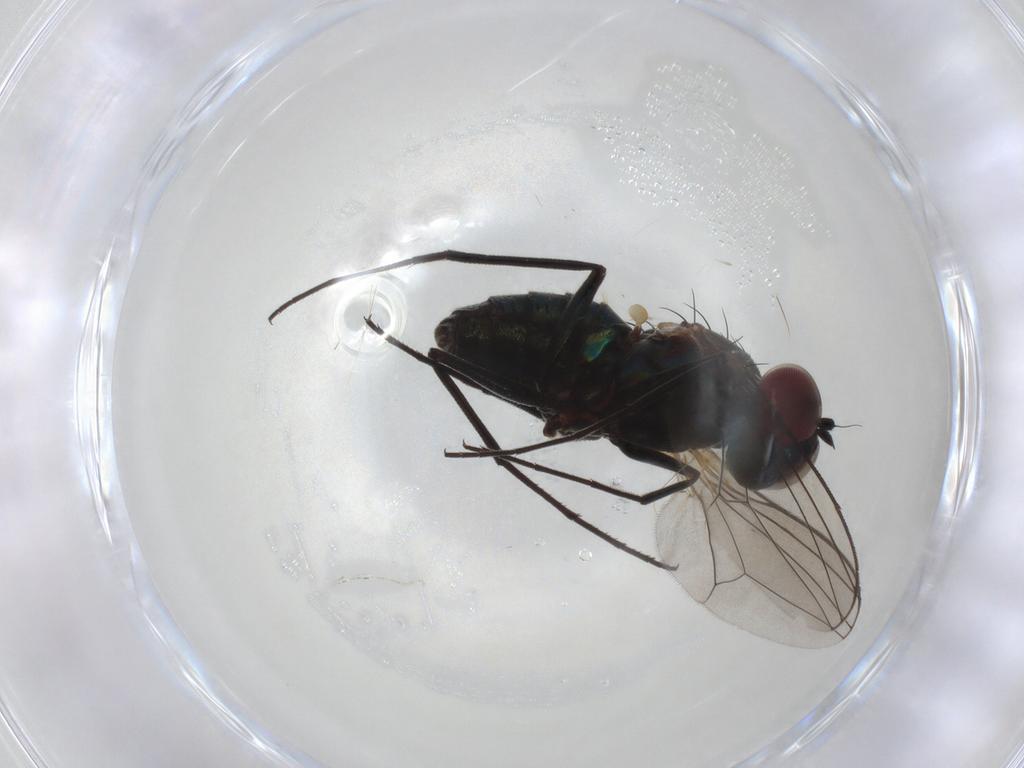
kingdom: Animalia
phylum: Arthropoda
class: Insecta
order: Diptera
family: Dolichopodidae
